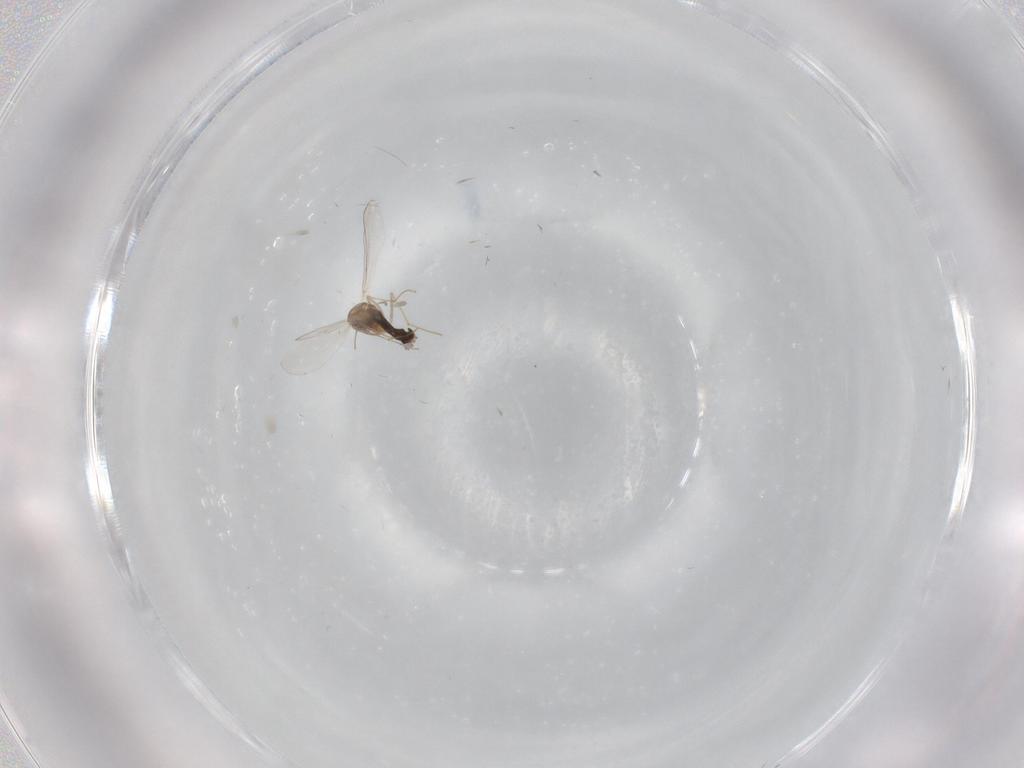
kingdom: Animalia
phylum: Arthropoda
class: Insecta
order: Diptera
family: Chironomidae
